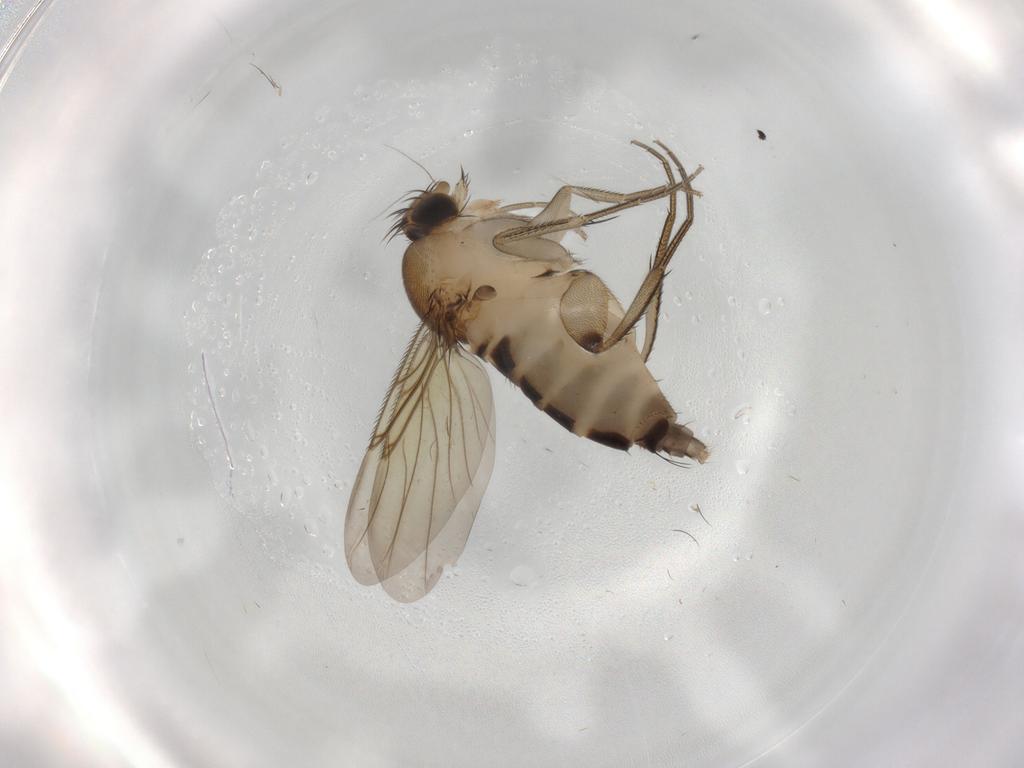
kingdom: Animalia
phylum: Arthropoda
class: Insecta
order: Diptera
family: Phoridae
